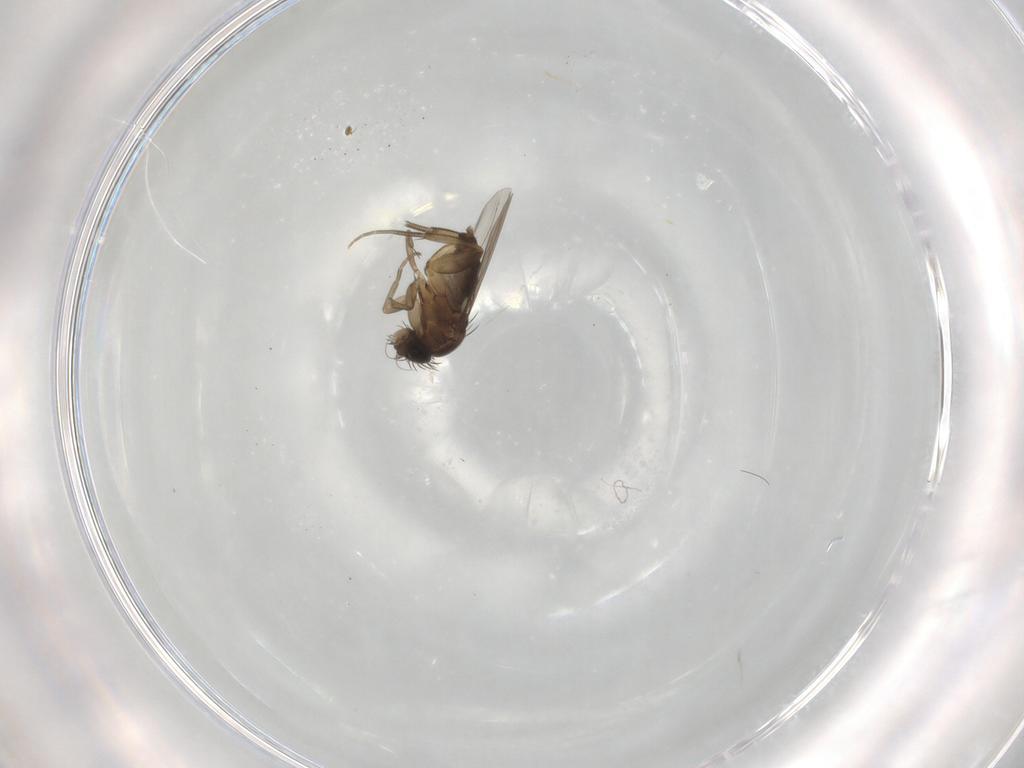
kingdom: Animalia
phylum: Arthropoda
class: Insecta
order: Diptera
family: Phoridae
